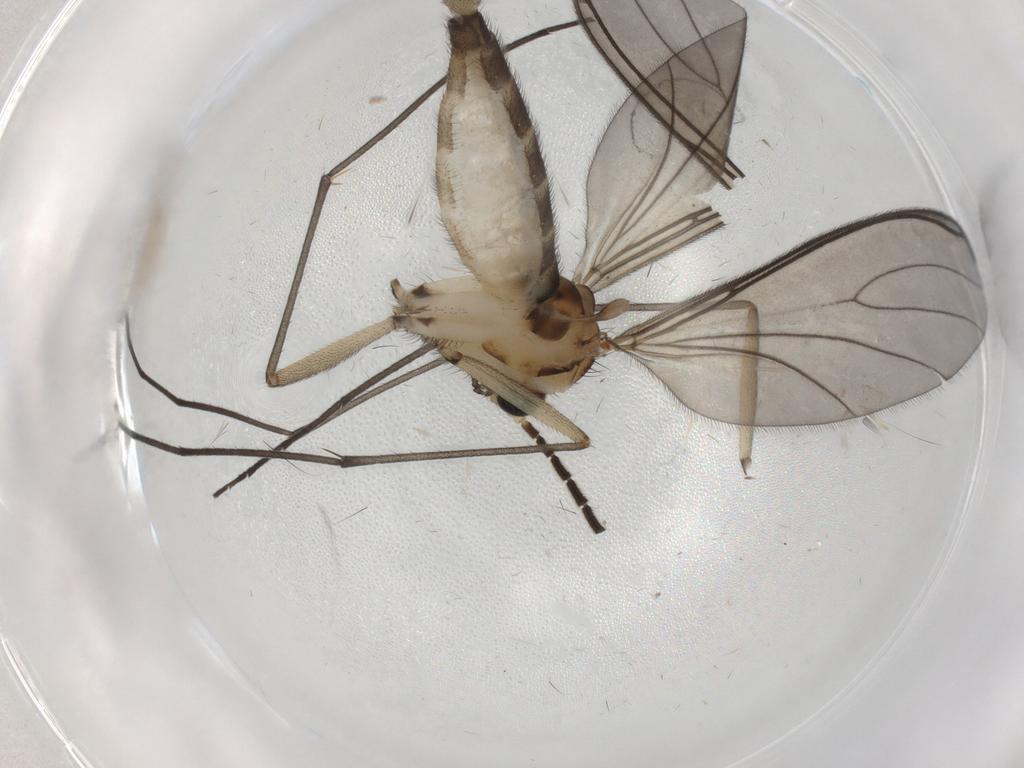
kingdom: Animalia
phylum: Arthropoda
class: Insecta
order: Diptera
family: Sciaridae
